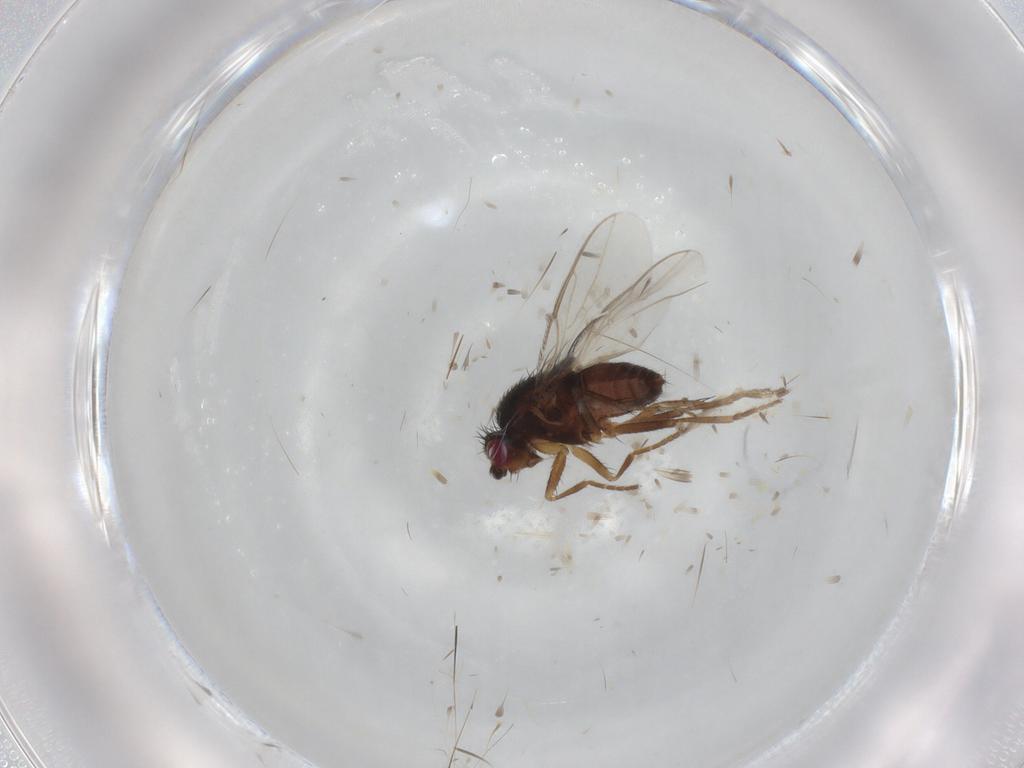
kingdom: Animalia
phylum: Arthropoda
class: Insecta
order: Diptera
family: Sphaeroceridae
